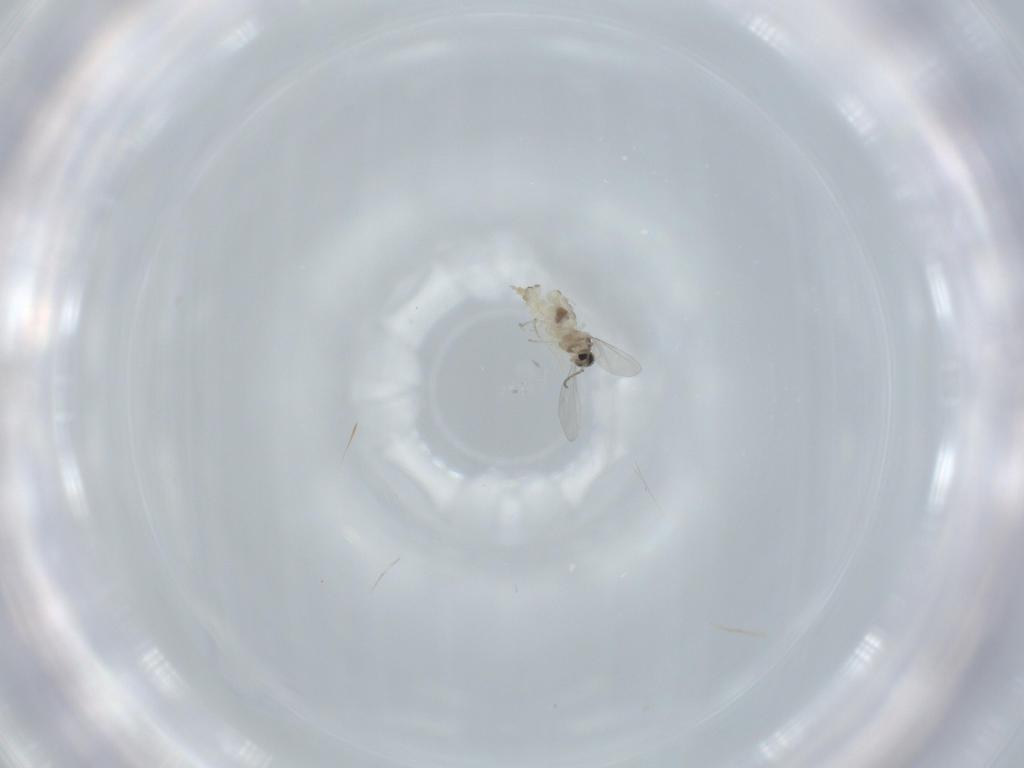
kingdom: Animalia
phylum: Arthropoda
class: Insecta
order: Diptera
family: Cecidomyiidae
